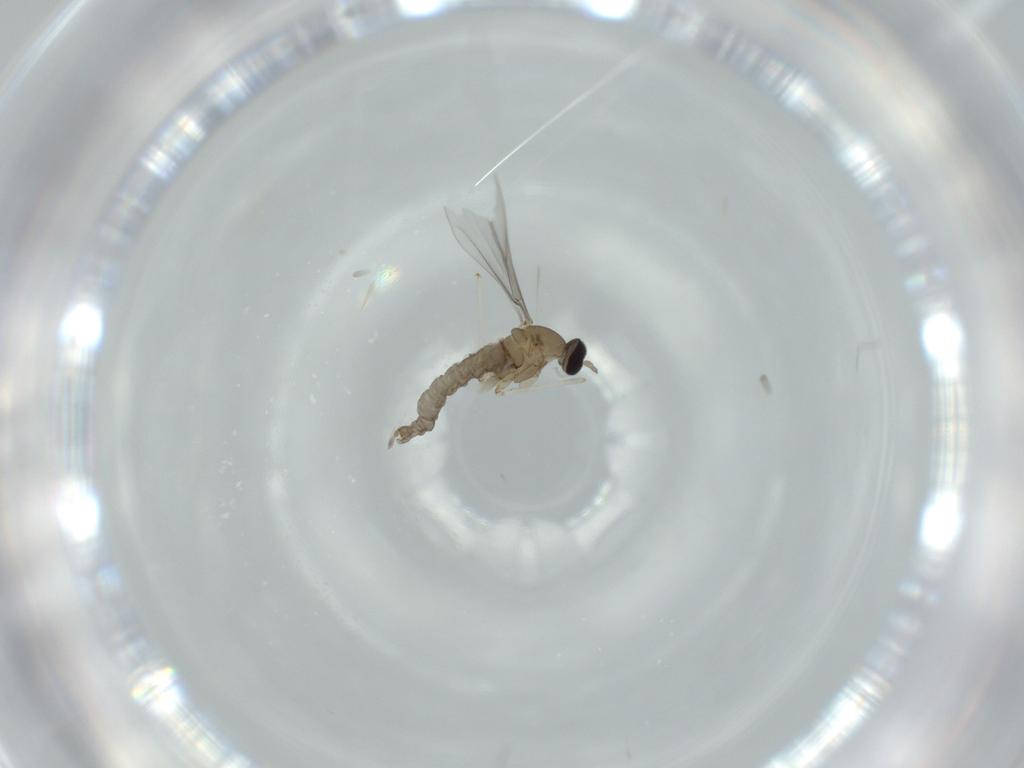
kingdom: Animalia
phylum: Arthropoda
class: Insecta
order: Diptera
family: Cecidomyiidae
